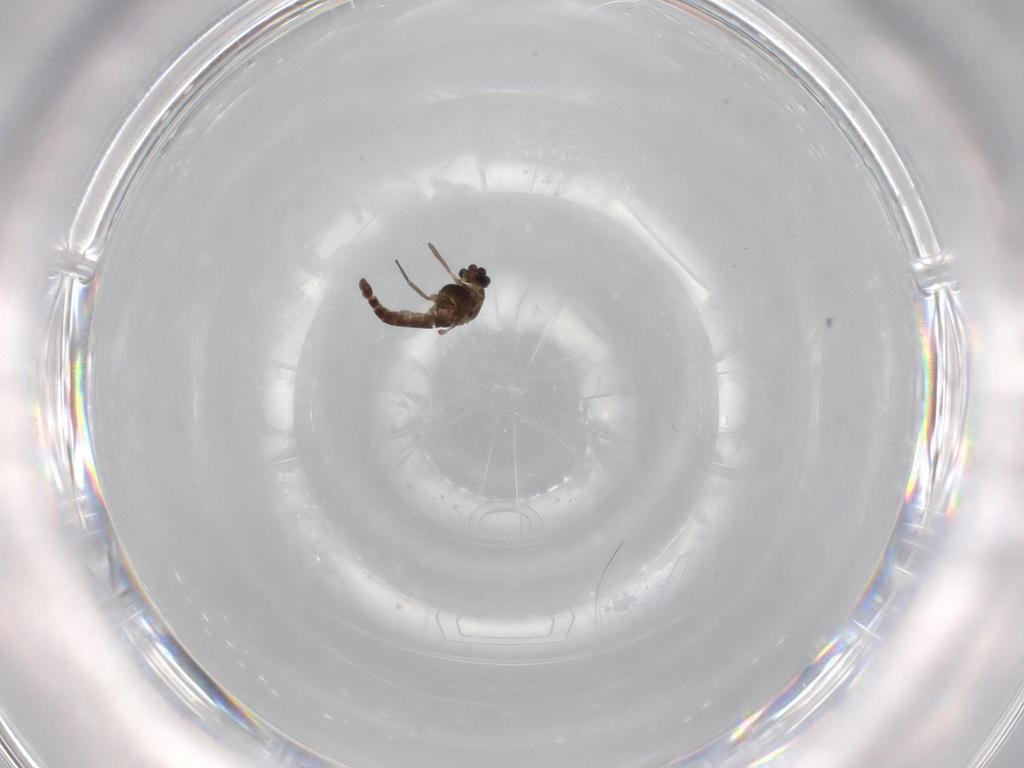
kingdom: Animalia
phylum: Arthropoda
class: Insecta
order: Diptera
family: Chironomidae
